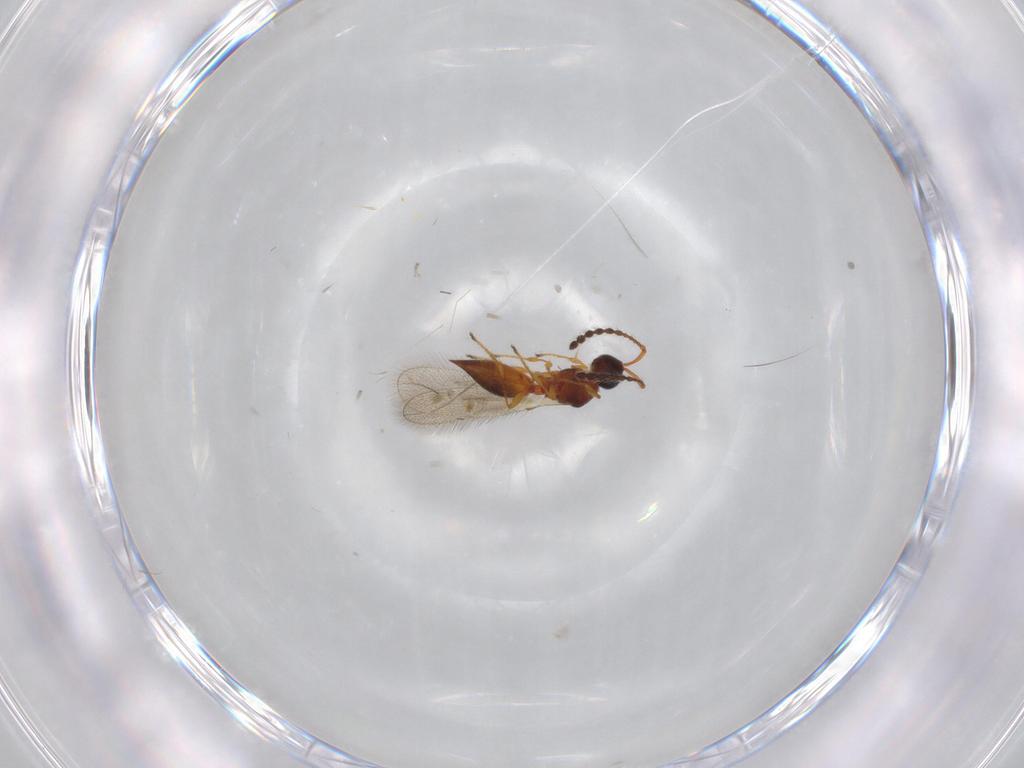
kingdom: Animalia
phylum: Arthropoda
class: Insecta
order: Hymenoptera
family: Diapriidae
